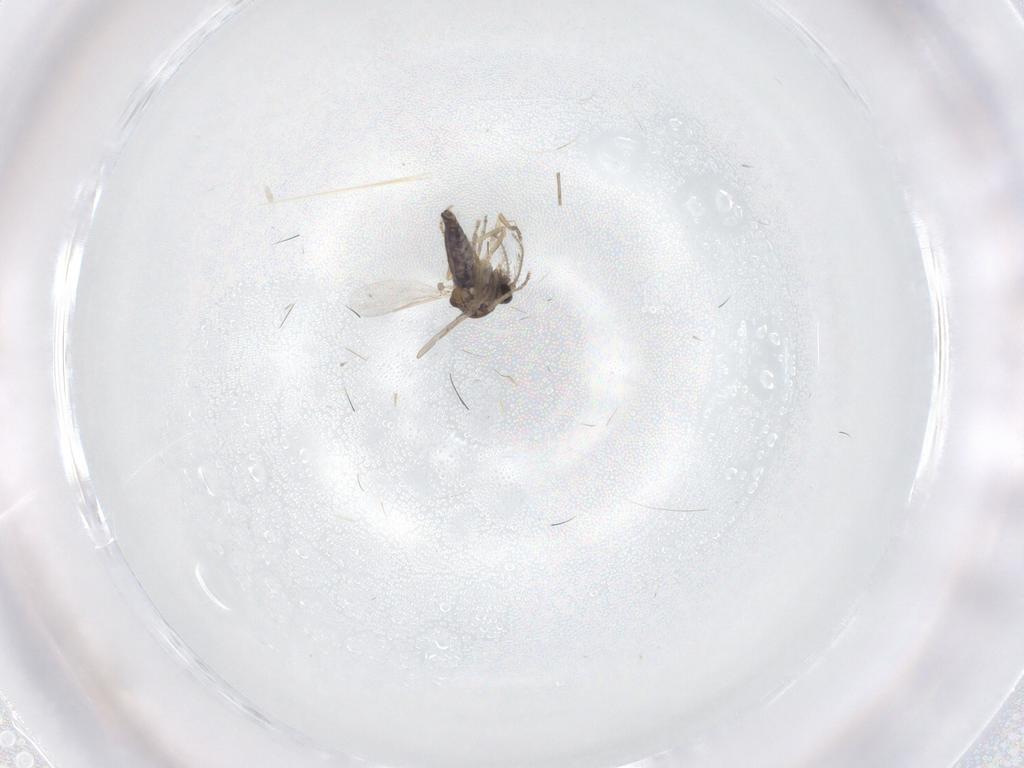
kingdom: Animalia
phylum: Arthropoda
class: Insecta
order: Diptera
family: Ceratopogonidae
